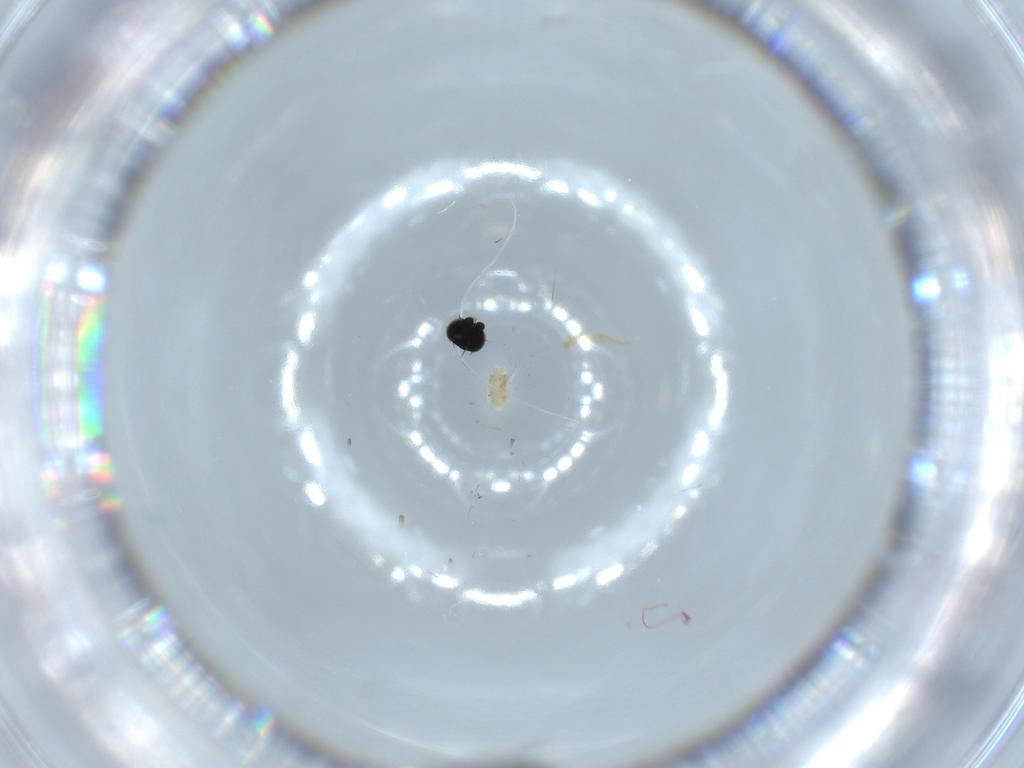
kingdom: Animalia
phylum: Arthropoda
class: Insecta
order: Diptera
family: Phoridae
